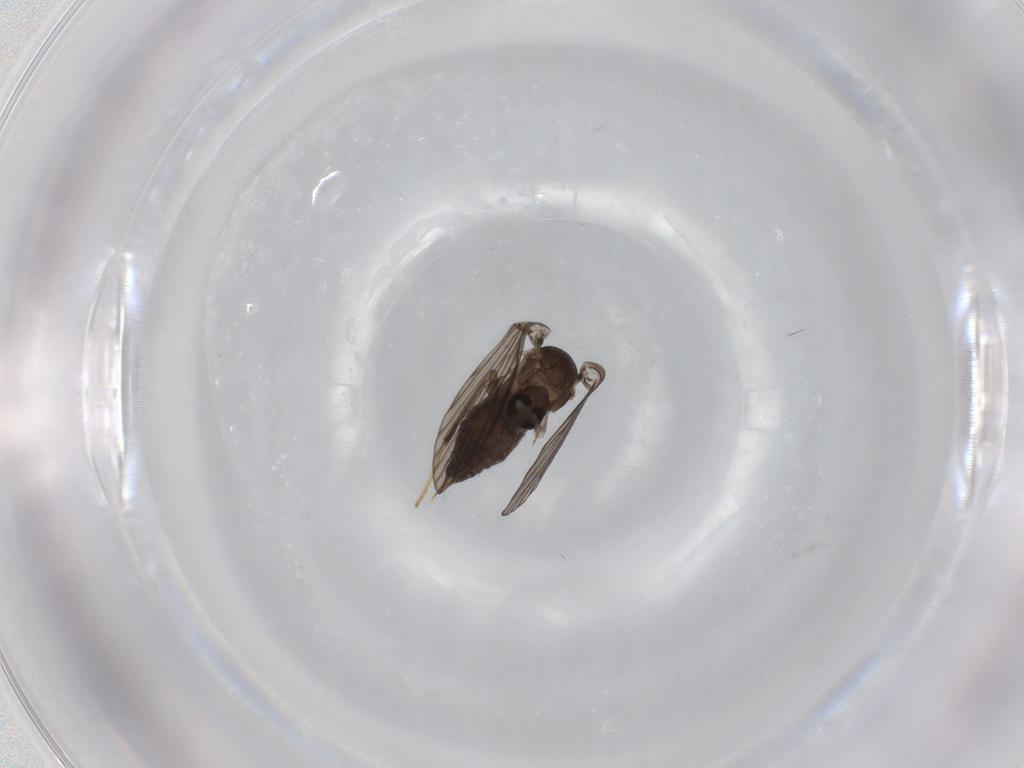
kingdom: Animalia
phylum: Arthropoda
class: Insecta
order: Diptera
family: Psychodidae
